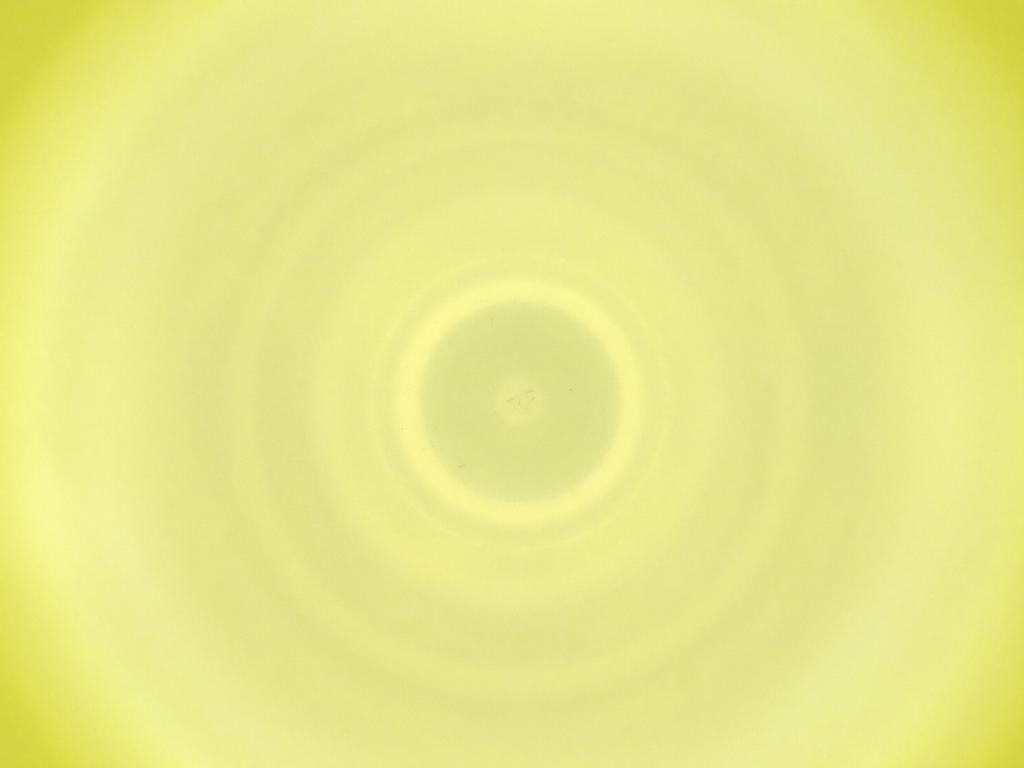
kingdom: Animalia
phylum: Arthropoda
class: Insecta
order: Diptera
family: Cecidomyiidae
